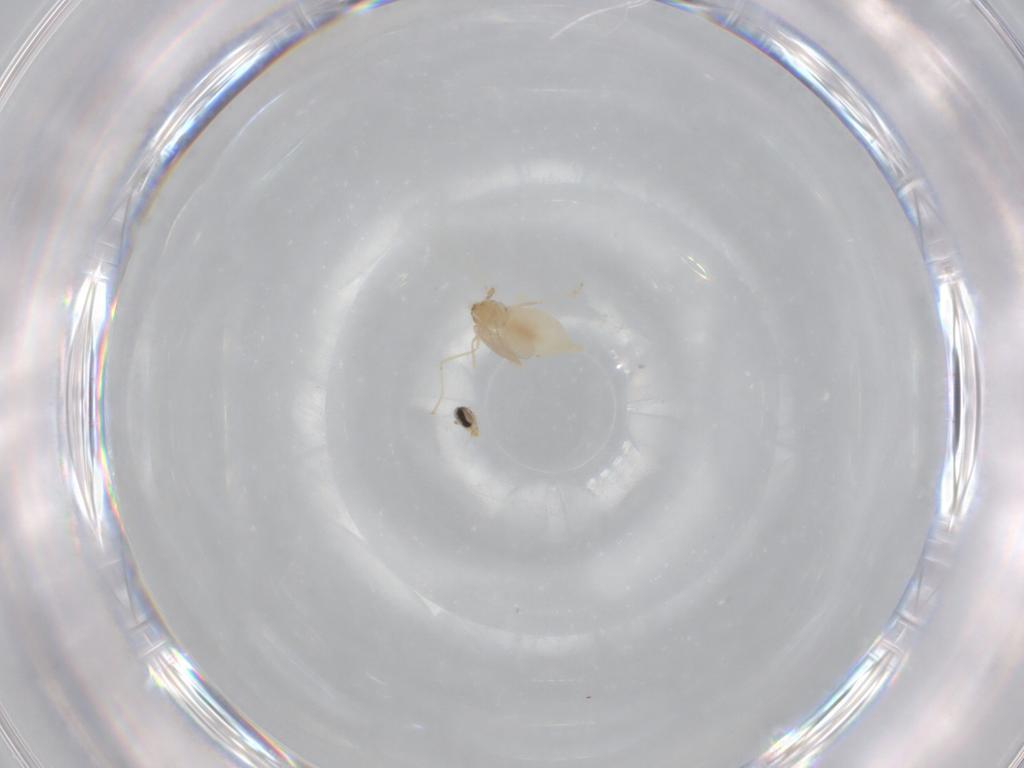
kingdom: Animalia
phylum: Arthropoda
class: Insecta
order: Diptera
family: Cecidomyiidae
